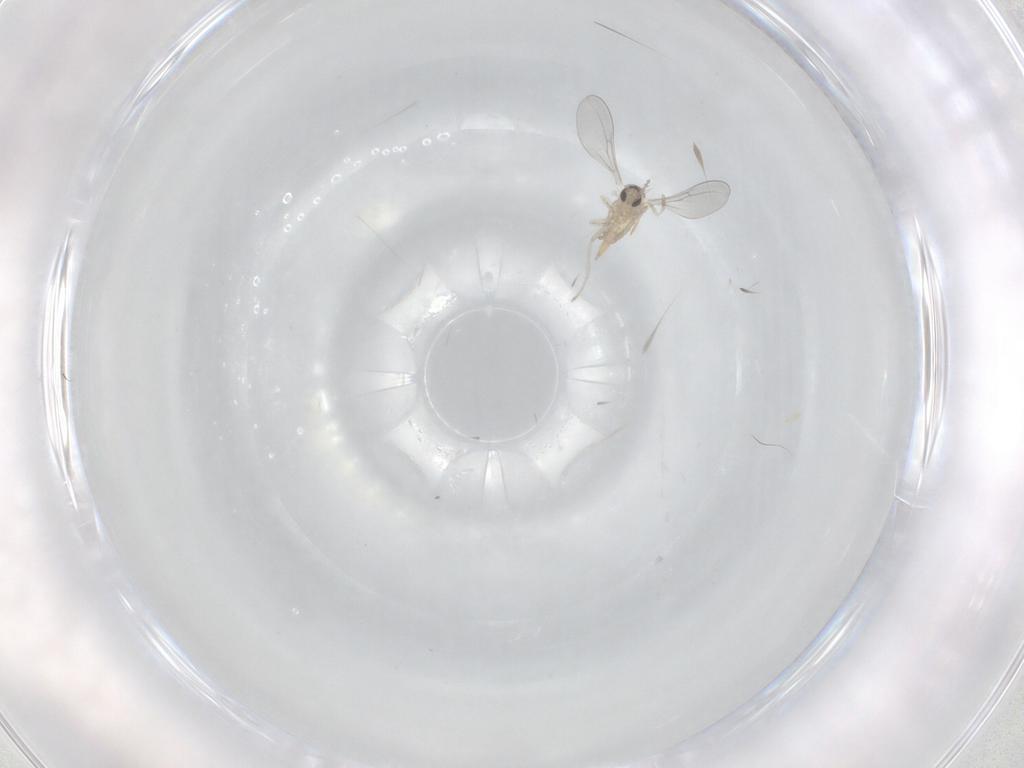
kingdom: Animalia
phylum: Arthropoda
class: Insecta
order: Diptera
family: Cecidomyiidae
